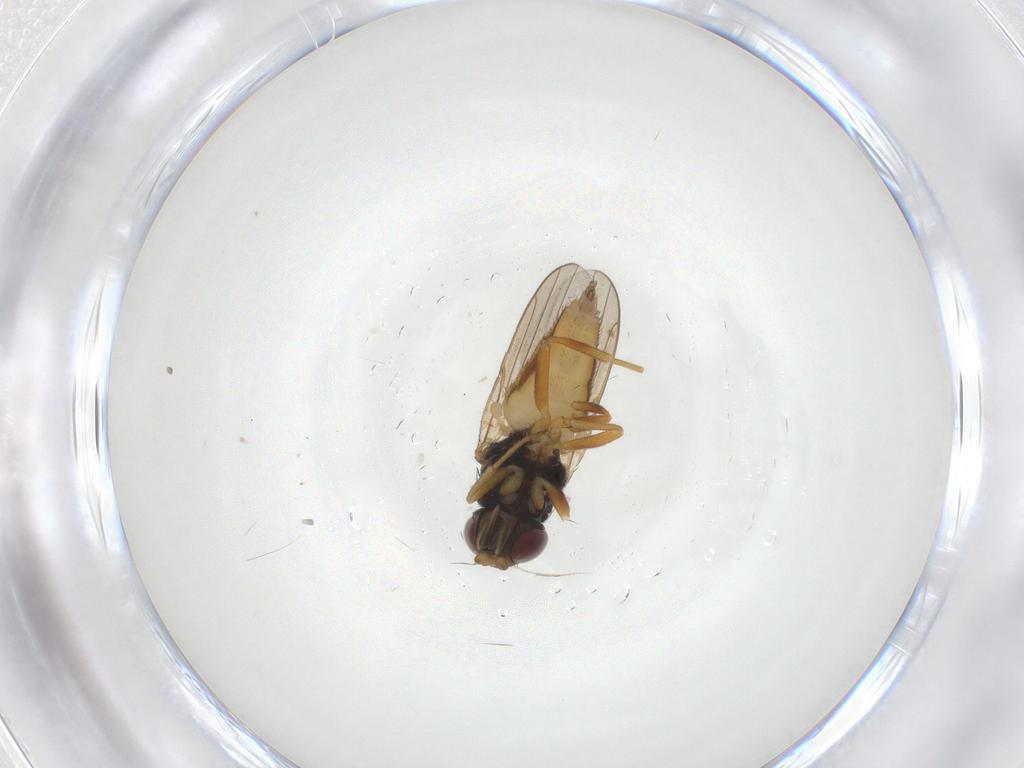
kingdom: Animalia
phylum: Arthropoda
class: Insecta
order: Diptera
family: Chloropidae
